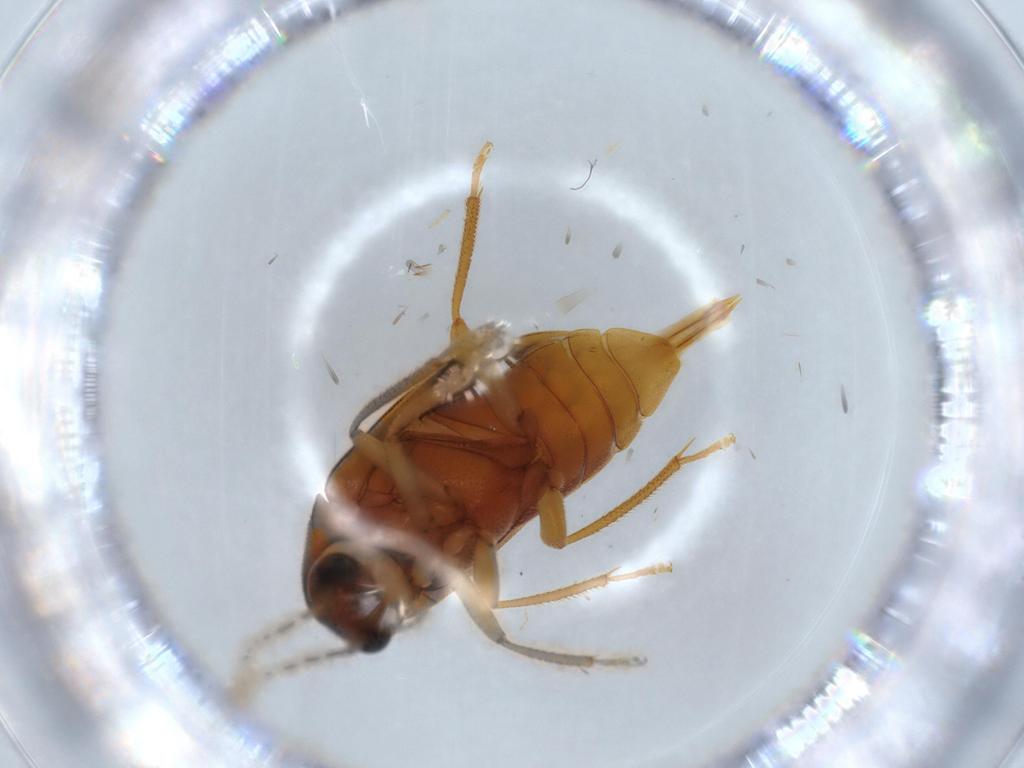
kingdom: Animalia
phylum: Arthropoda
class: Insecta
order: Coleoptera
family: Ptilodactylidae
